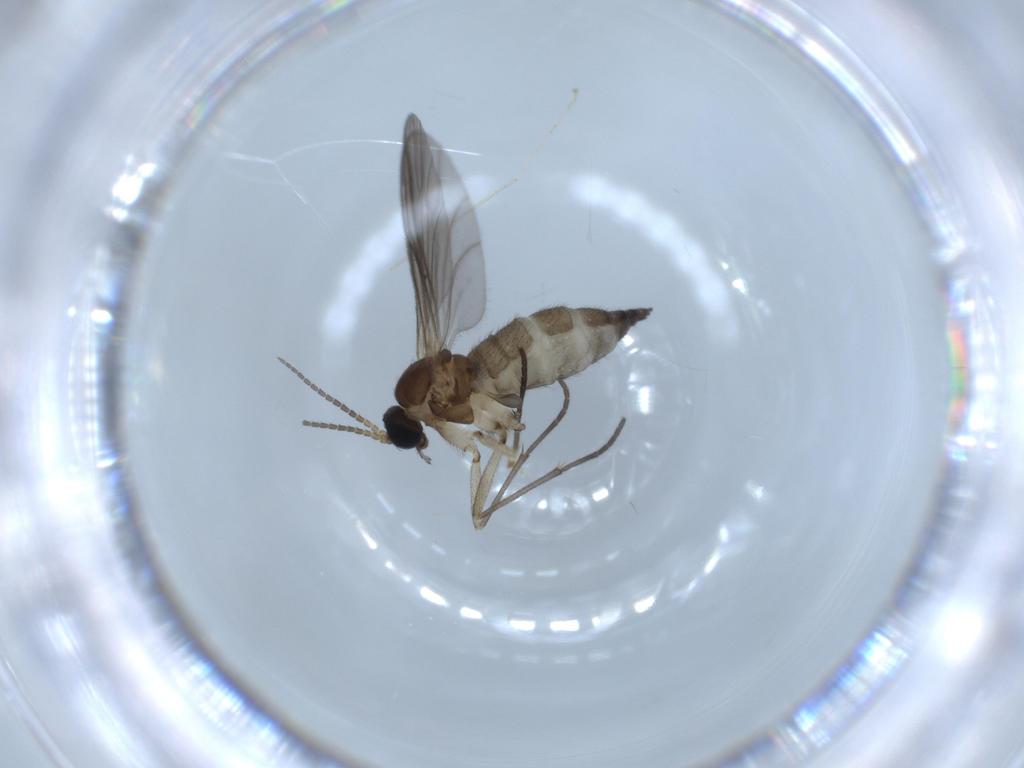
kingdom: Animalia
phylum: Arthropoda
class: Insecta
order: Diptera
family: Sciaridae
